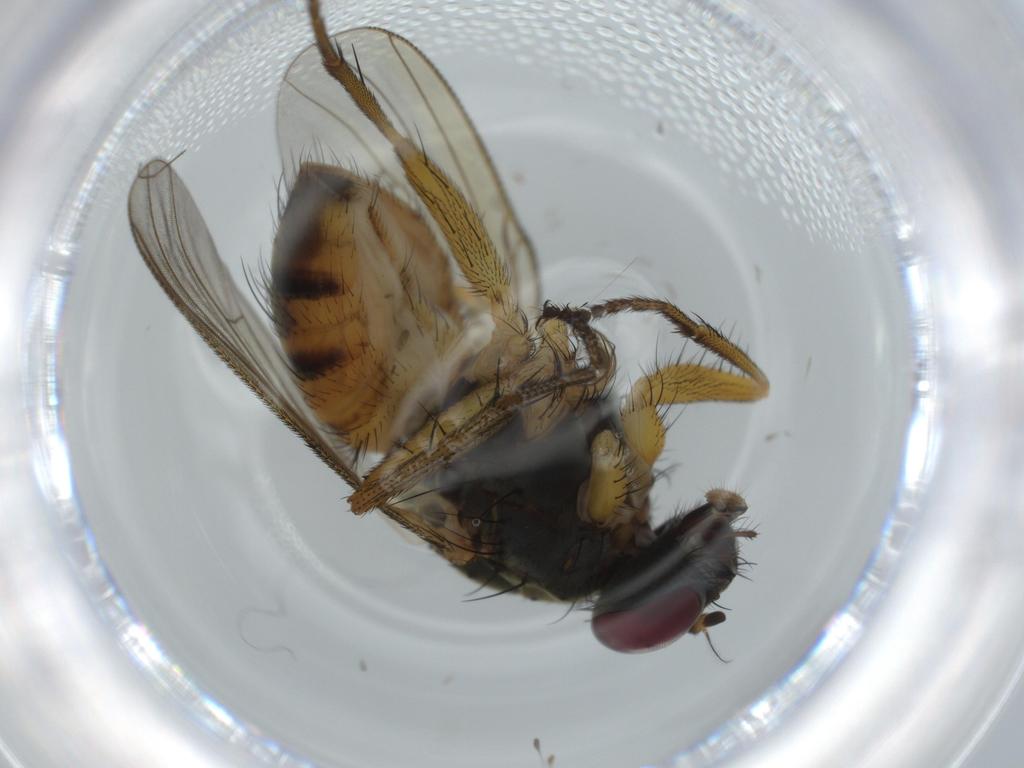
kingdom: Animalia
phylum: Arthropoda
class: Insecta
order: Diptera
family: Muscidae
